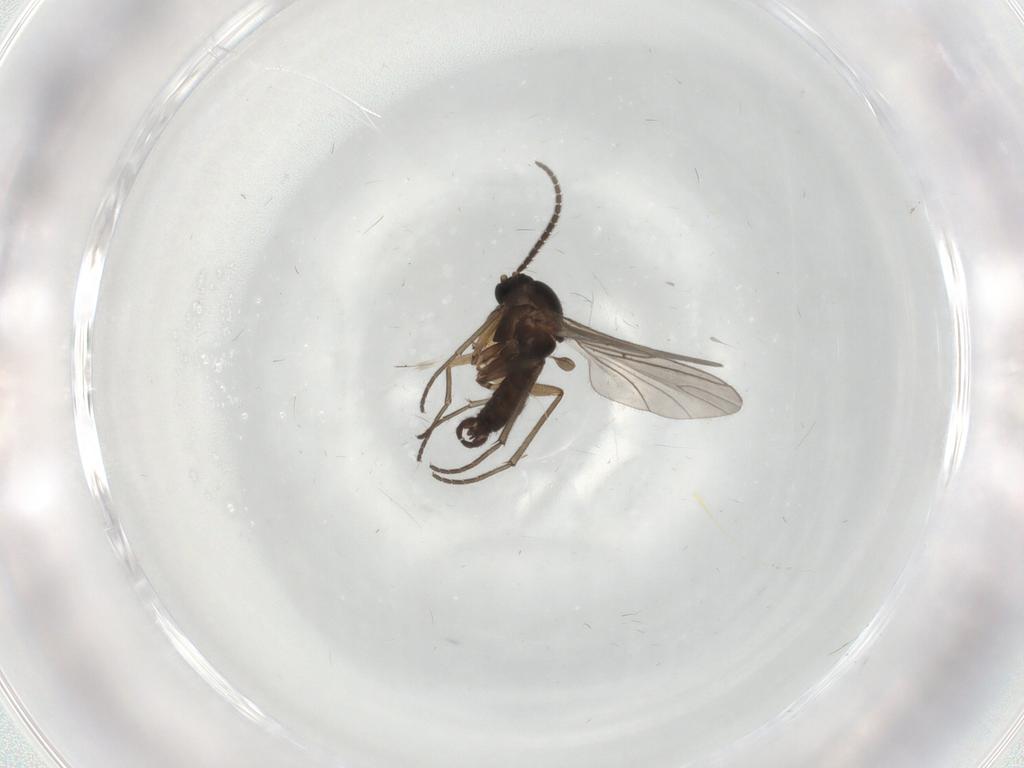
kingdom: Animalia
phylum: Arthropoda
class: Insecta
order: Diptera
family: Sciaridae
